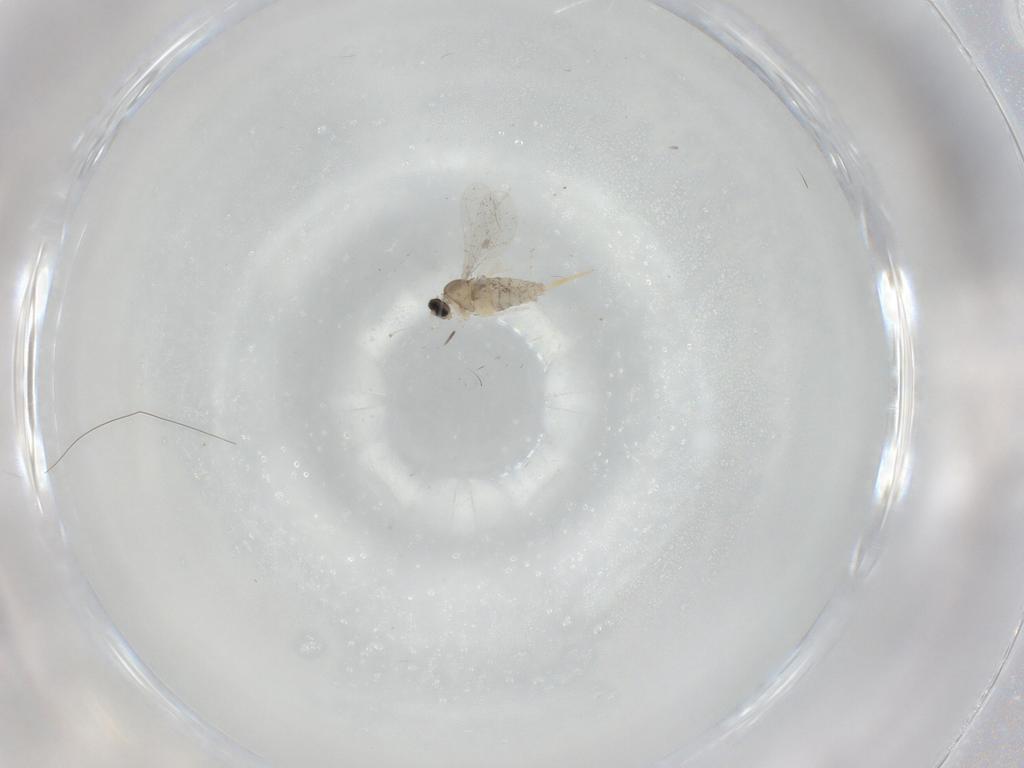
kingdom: Animalia
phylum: Arthropoda
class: Insecta
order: Diptera
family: Cecidomyiidae
